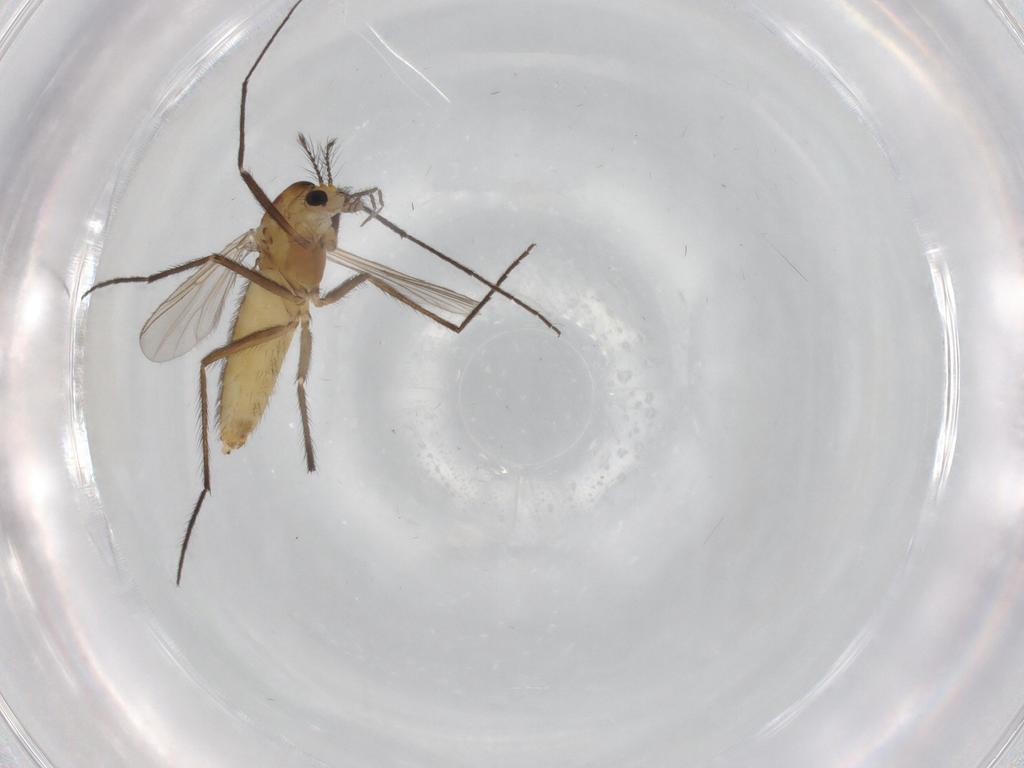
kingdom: Animalia
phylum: Arthropoda
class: Insecta
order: Diptera
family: Chironomidae
